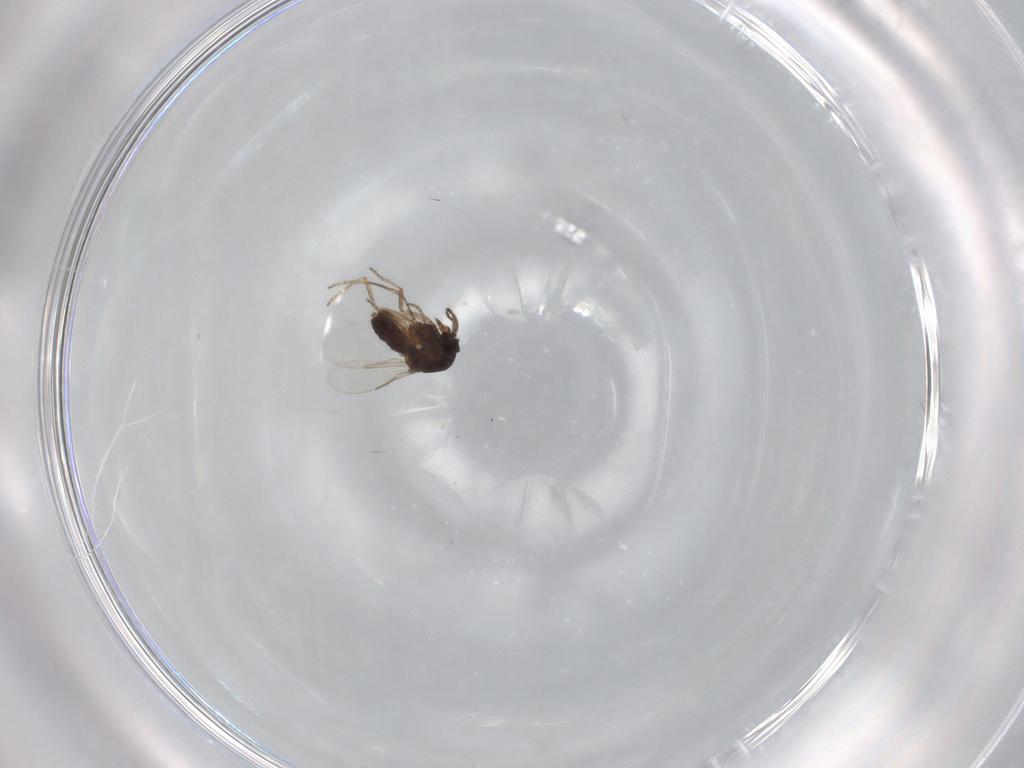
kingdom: Animalia
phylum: Arthropoda
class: Insecta
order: Diptera
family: Ceratopogonidae
